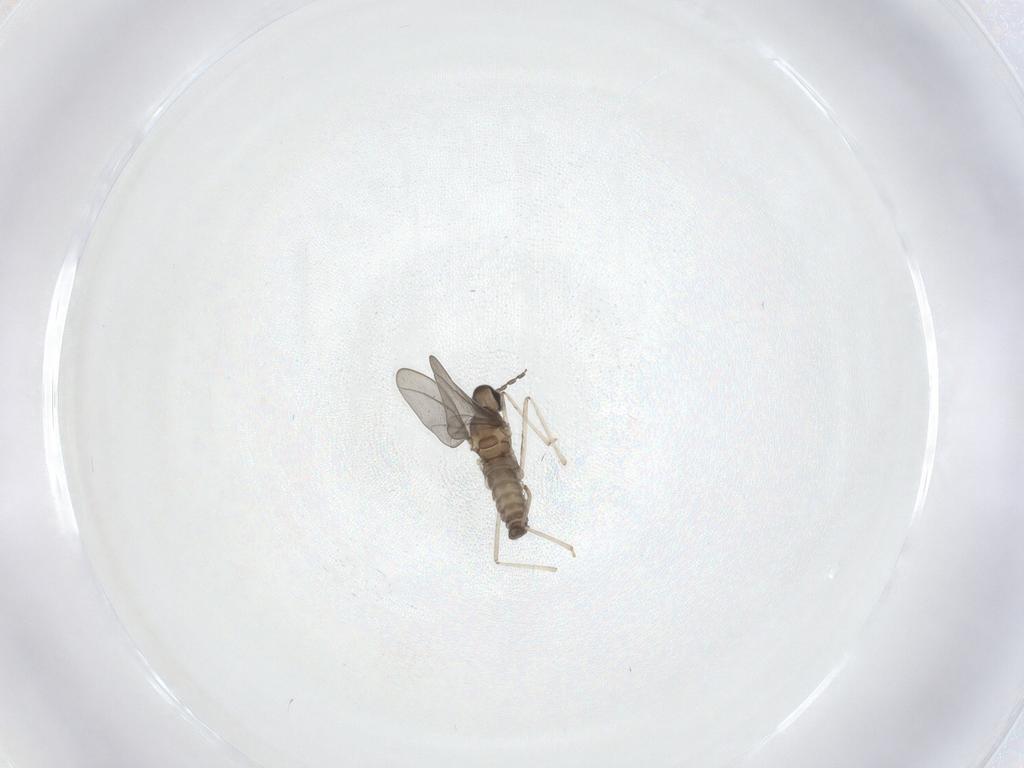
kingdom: Animalia
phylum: Arthropoda
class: Insecta
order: Diptera
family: Cecidomyiidae
